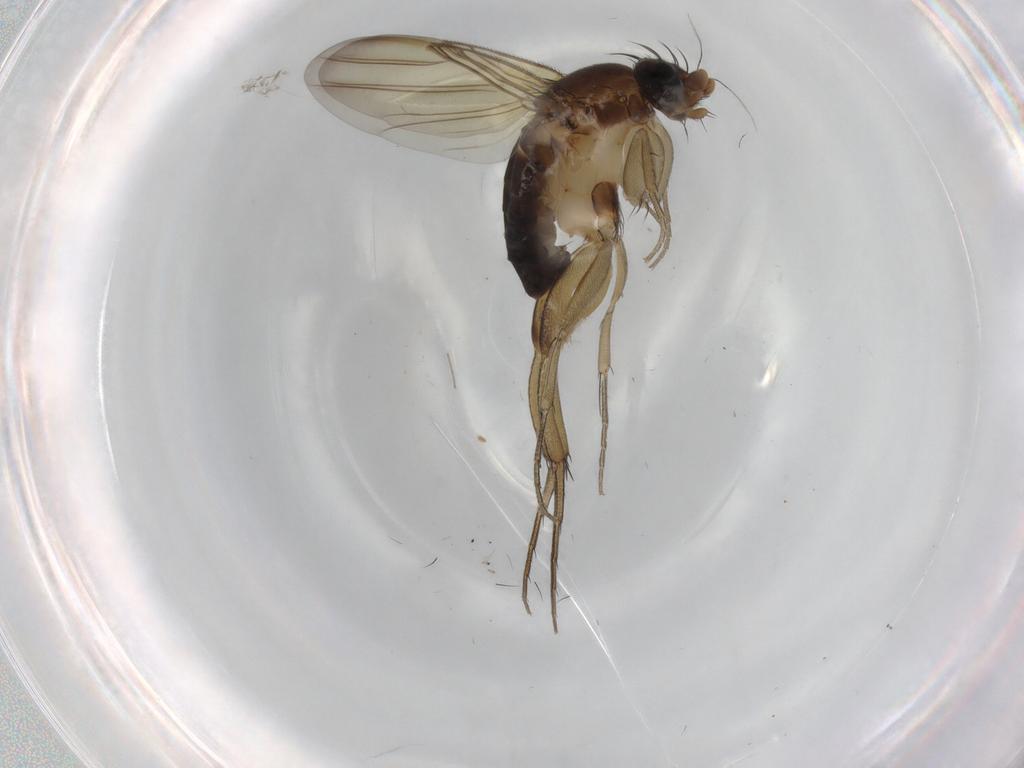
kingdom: Animalia
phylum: Arthropoda
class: Insecta
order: Diptera
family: Phoridae
